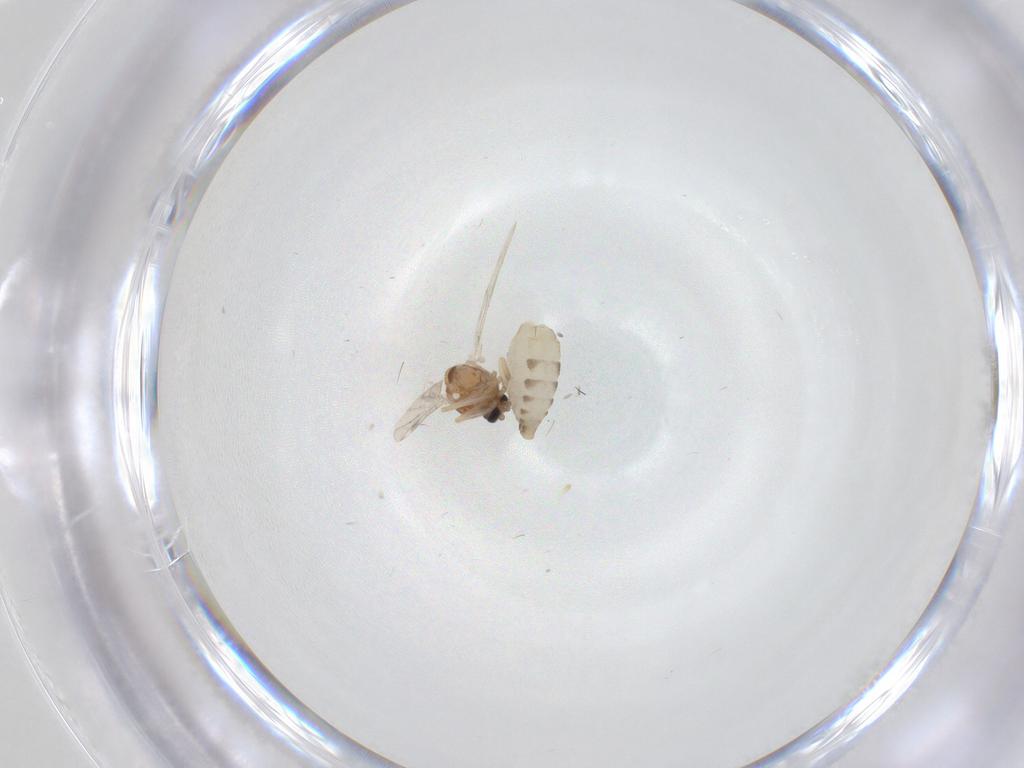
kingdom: Animalia
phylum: Arthropoda
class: Insecta
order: Diptera
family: Ceratopogonidae
